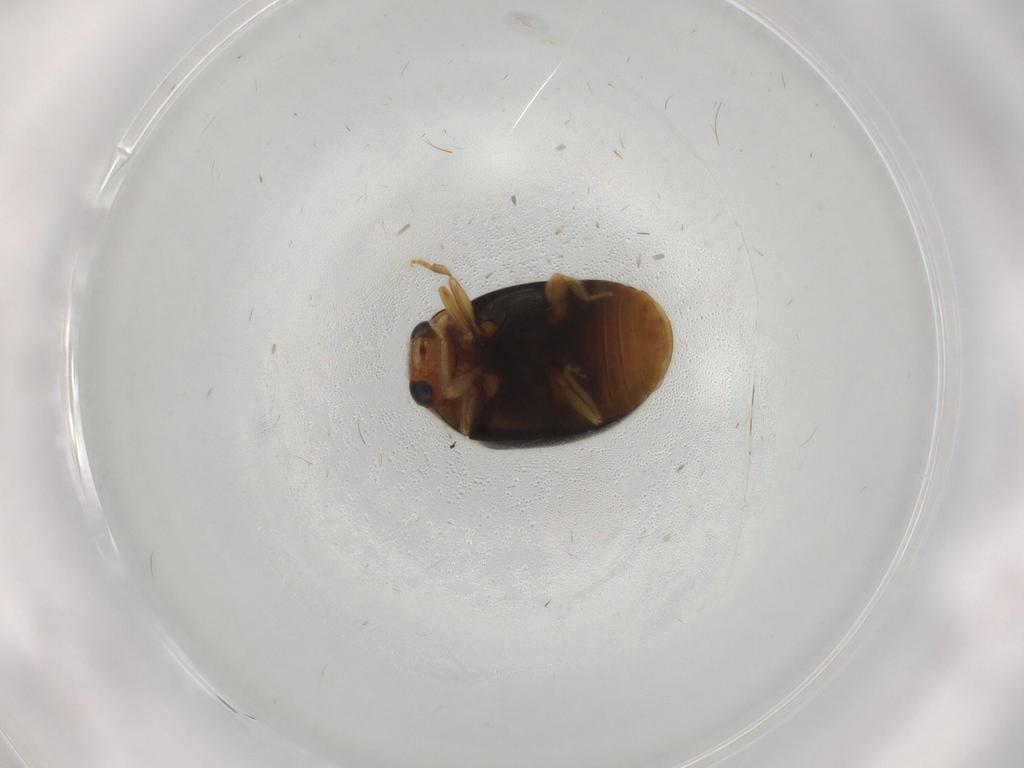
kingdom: Animalia
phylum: Arthropoda
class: Insecta
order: Coleoptera
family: Coccinellidae
